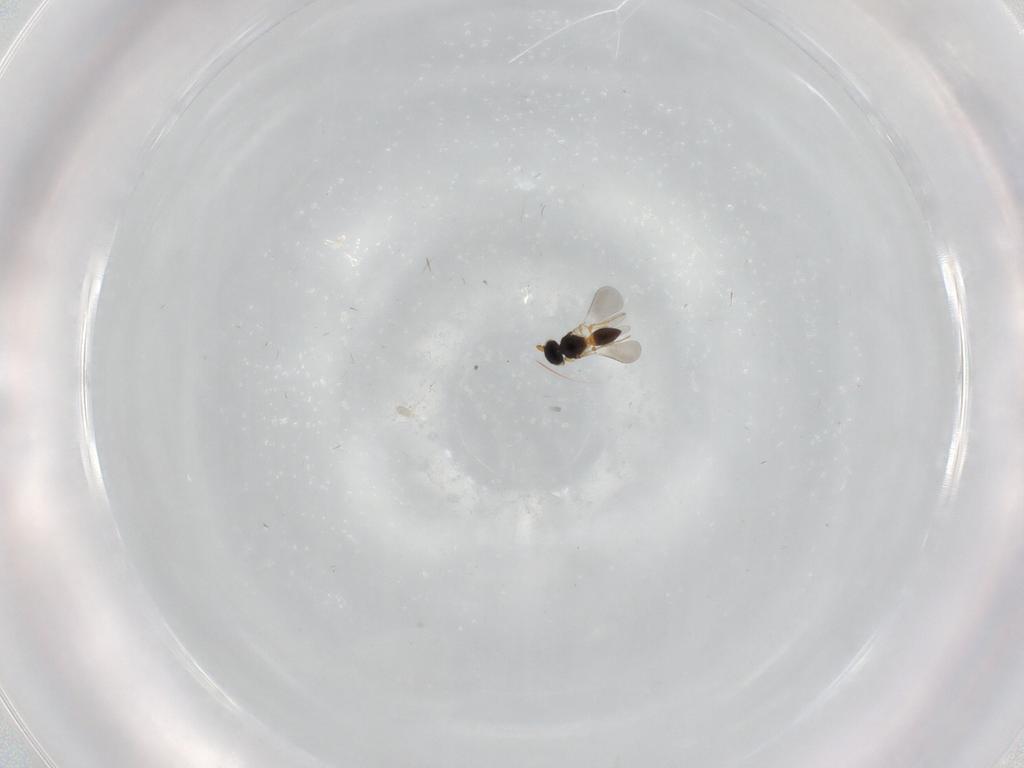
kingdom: Animalia
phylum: Arthropoda
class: Insecta
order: Hymenoptera
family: Platygastridae
